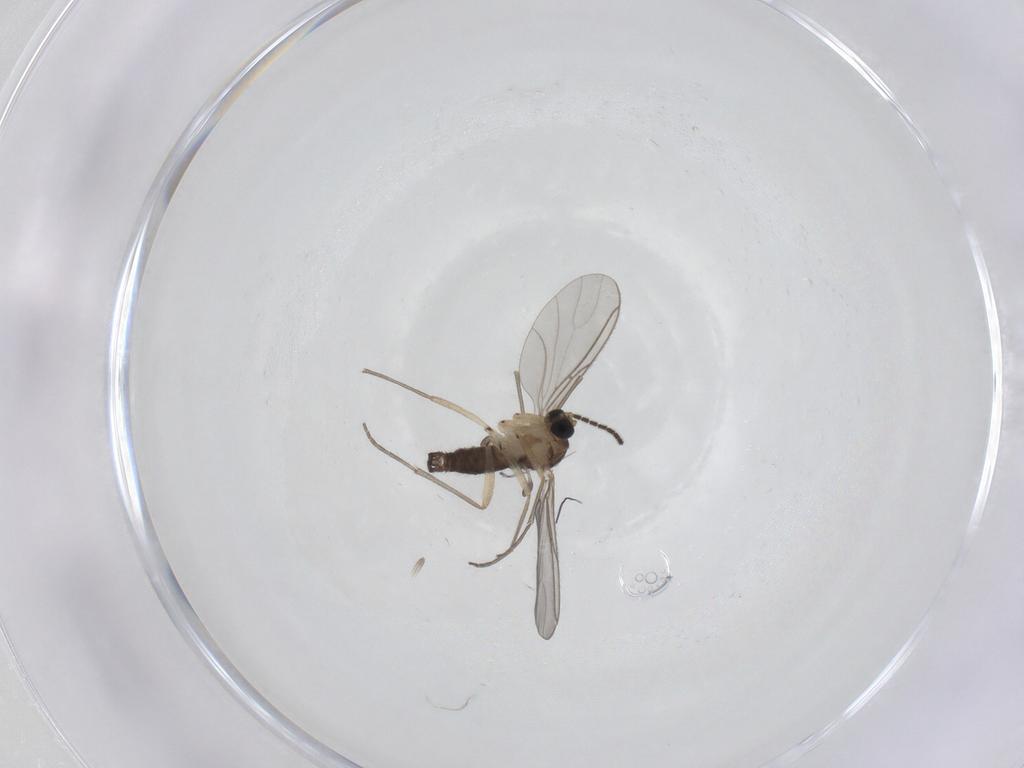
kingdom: Animalia
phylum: Arthropoda
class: Insecta
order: Diptera
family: Sciaridae
